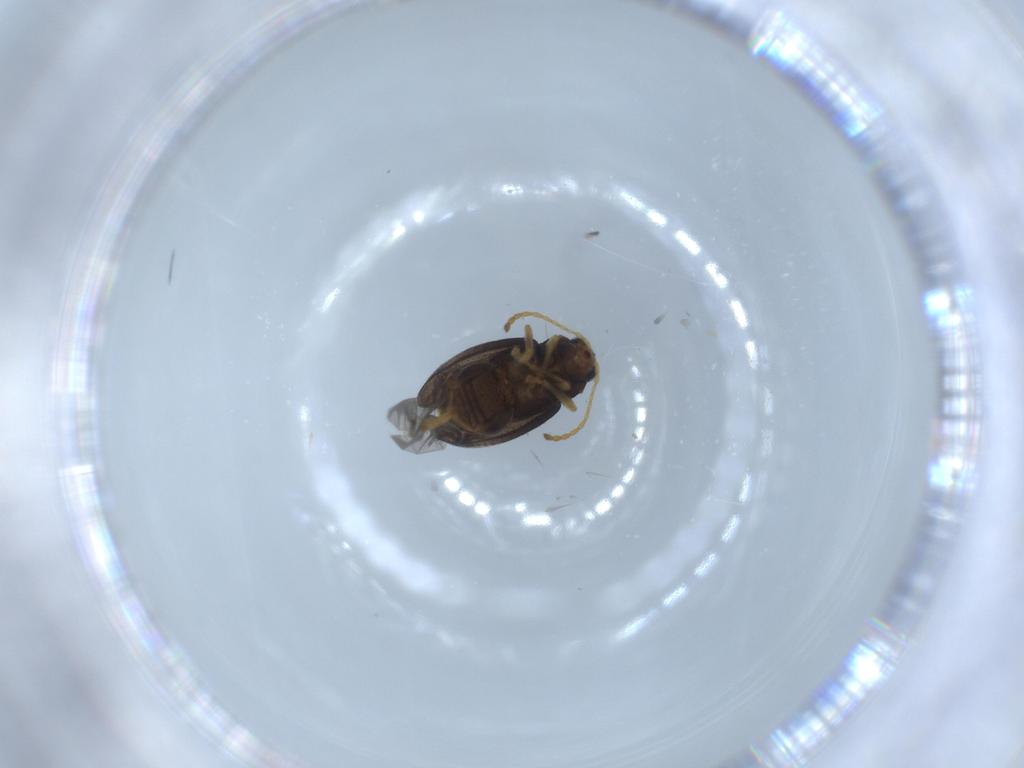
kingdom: Animalia
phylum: Arthropoda
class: Insecta
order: Coleoptera
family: Chrysomelidae
